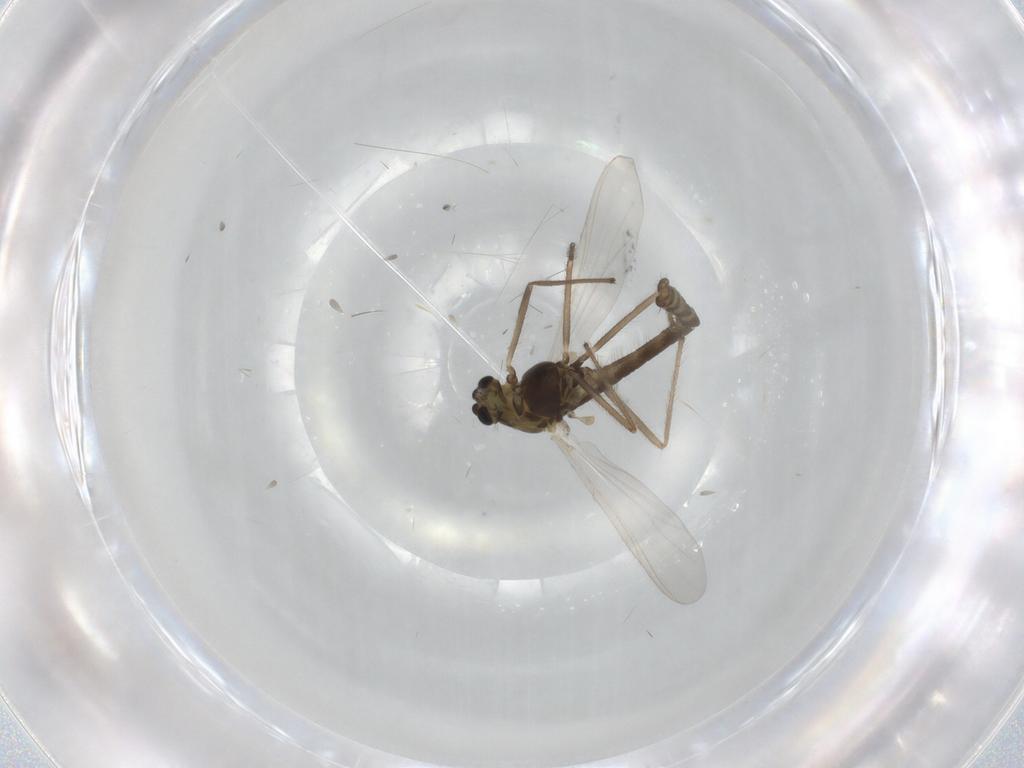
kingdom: Animalia
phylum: Arthropoda
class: Insecta
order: Diptera
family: Chironomidae
